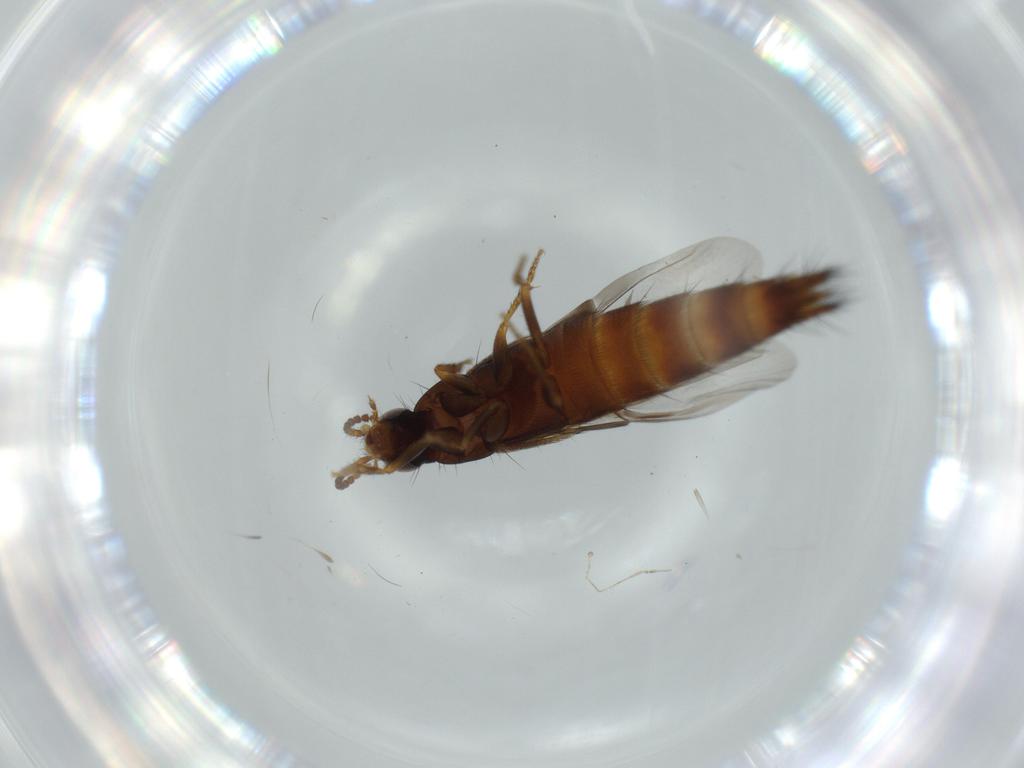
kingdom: Animalia
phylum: Arthropoda
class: Insecta
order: Coleoptera
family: Staphylinidae
